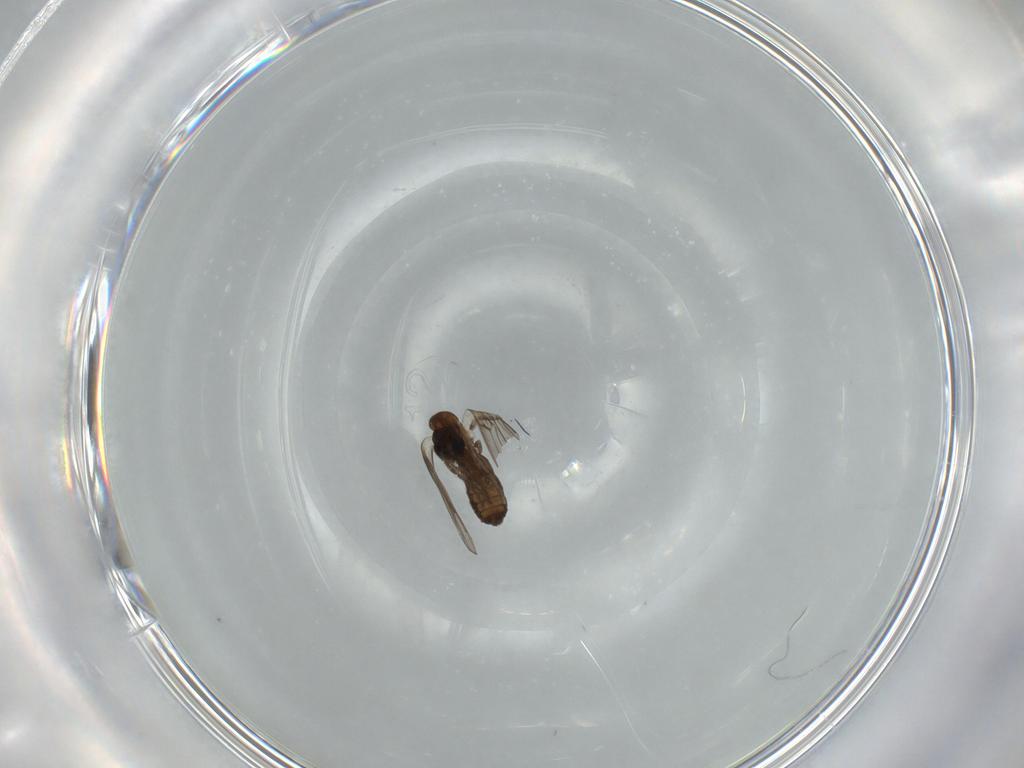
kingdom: Animalia
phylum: Arthropoda
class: Insecta
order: Diptera
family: Psychodidae
